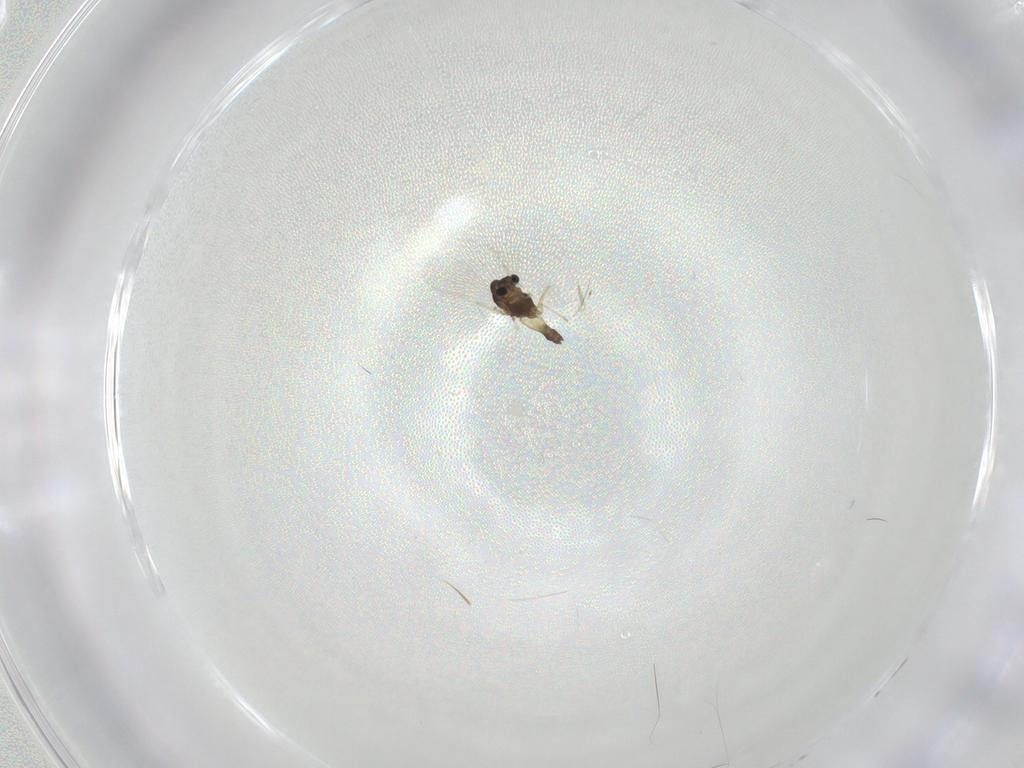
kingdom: Animalia
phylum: Arthropoda
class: Insecta
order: Diptera
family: Chironomidae
